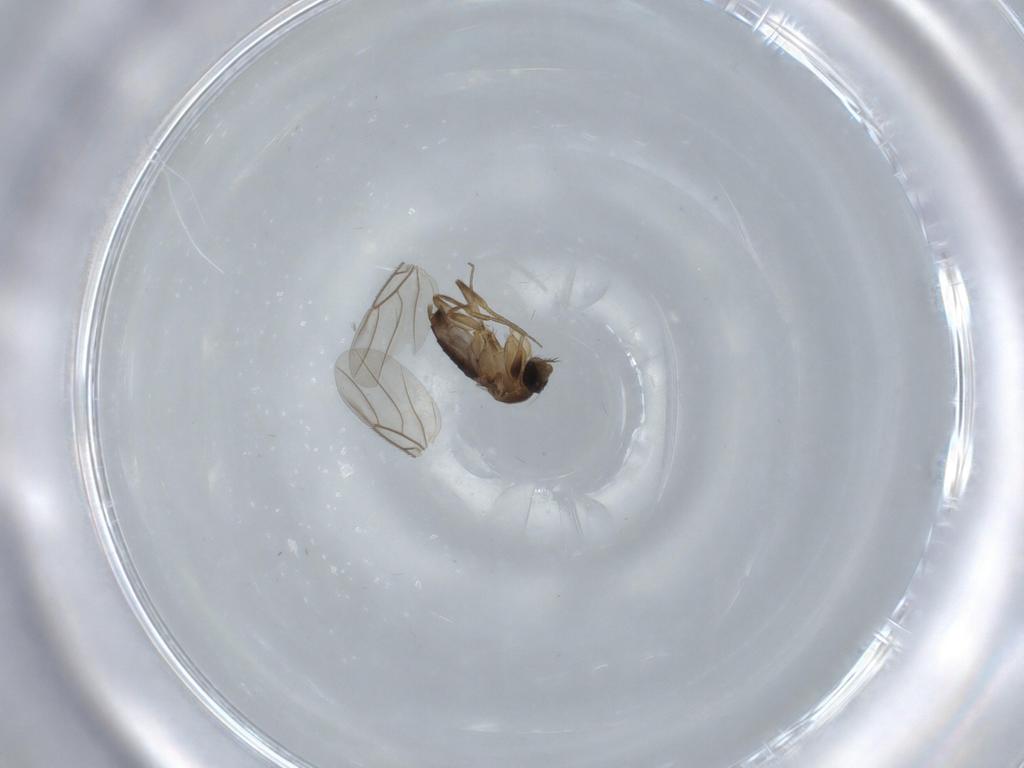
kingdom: Animalia
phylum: Arthropoda
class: Insecta
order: Diptera
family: Phoridae
